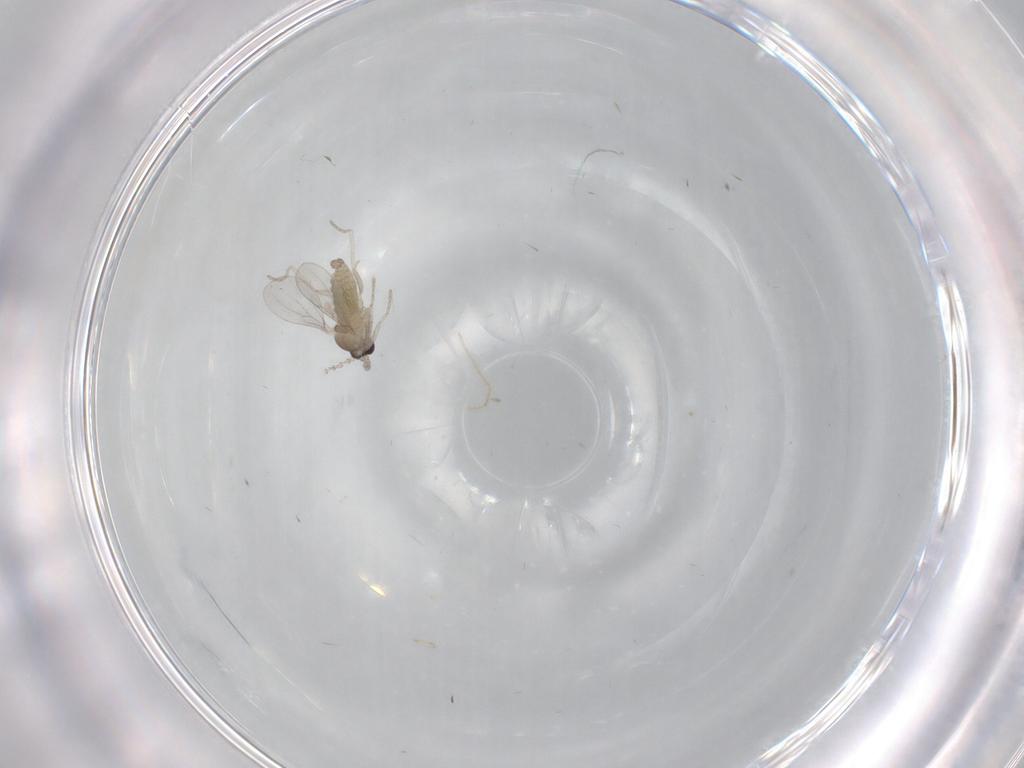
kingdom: Animalia
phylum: Arthropoda
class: Insecta
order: Diptera
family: Cecidomyiidae
